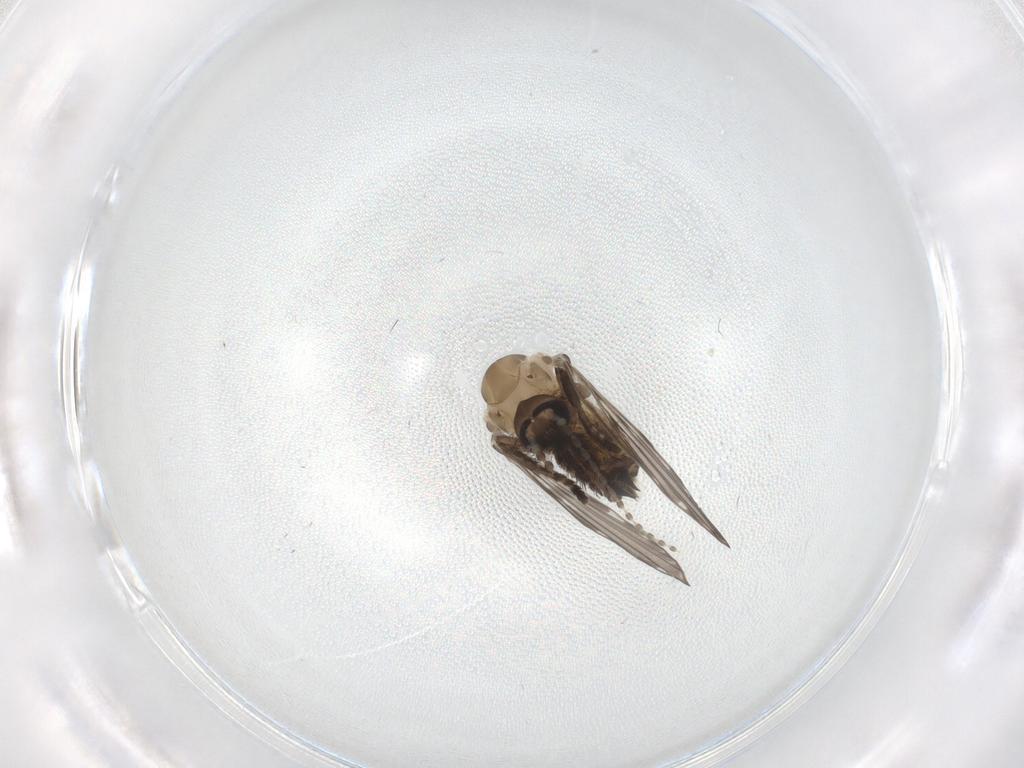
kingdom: Animalia
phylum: Arthropoda
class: Insecta
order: Diptera
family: Psychodidae
